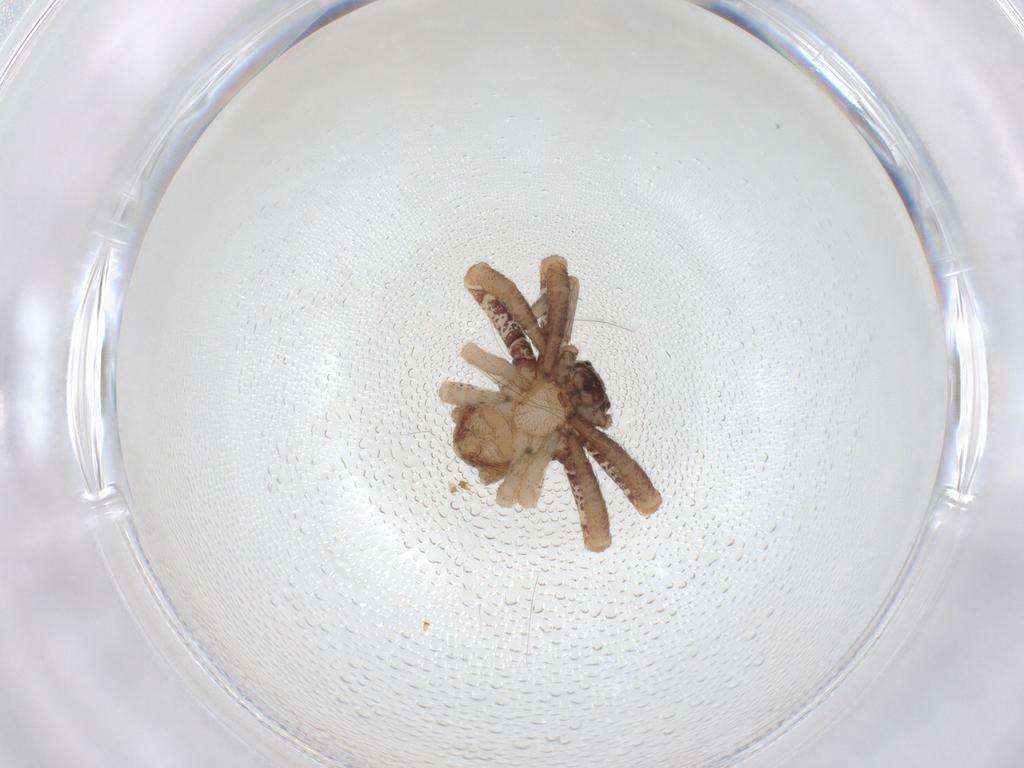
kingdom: Animalia
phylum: Arthropoda
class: Arachnida
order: Araneae
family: Thomisidae
